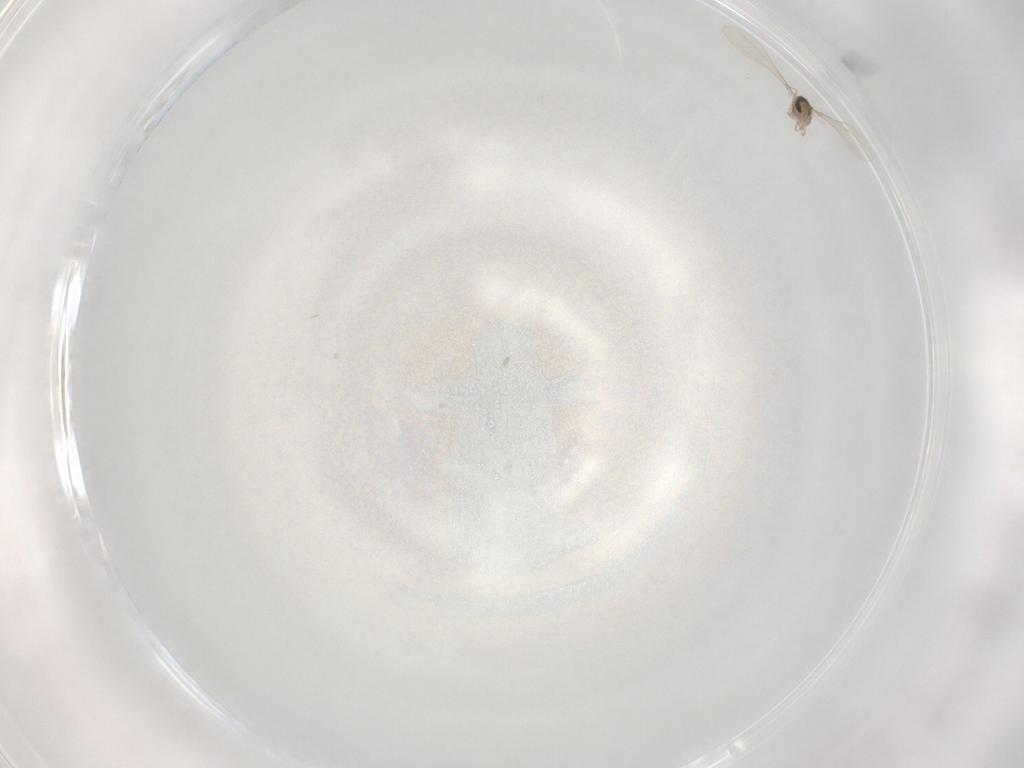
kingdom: Animalia
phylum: Arthropoda
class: Insecta
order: Diptera
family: Cecidomyiidae
